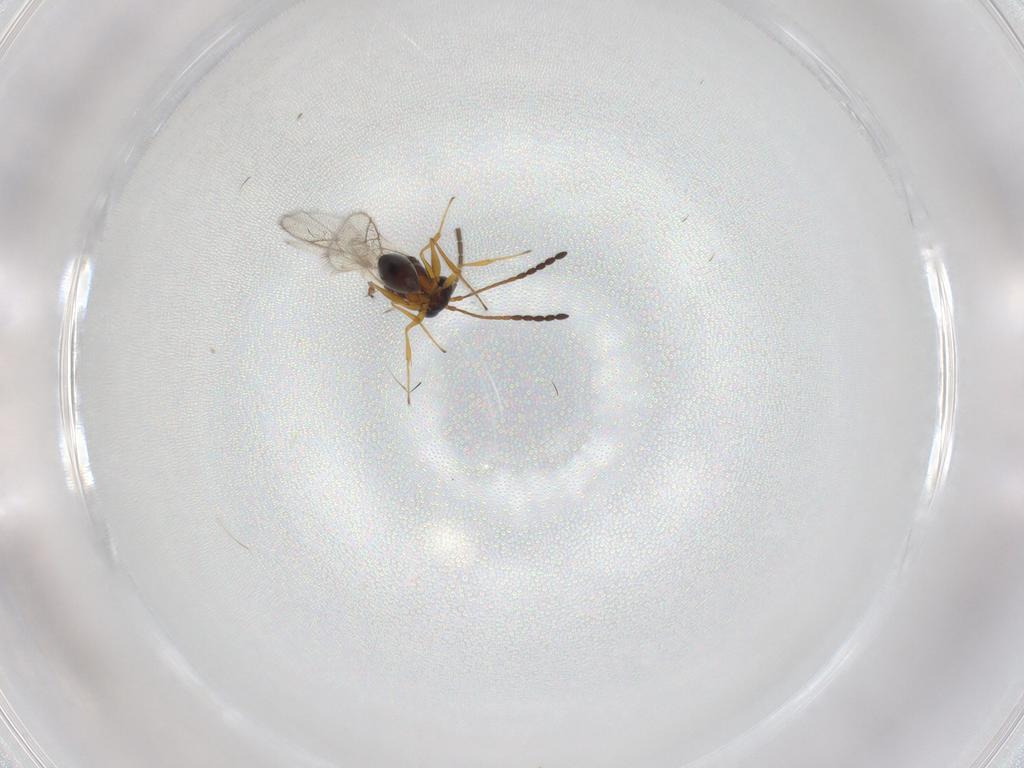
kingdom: Animalia
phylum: Arthropoda
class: Insecta
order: Hymenoptera
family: Figitidae
